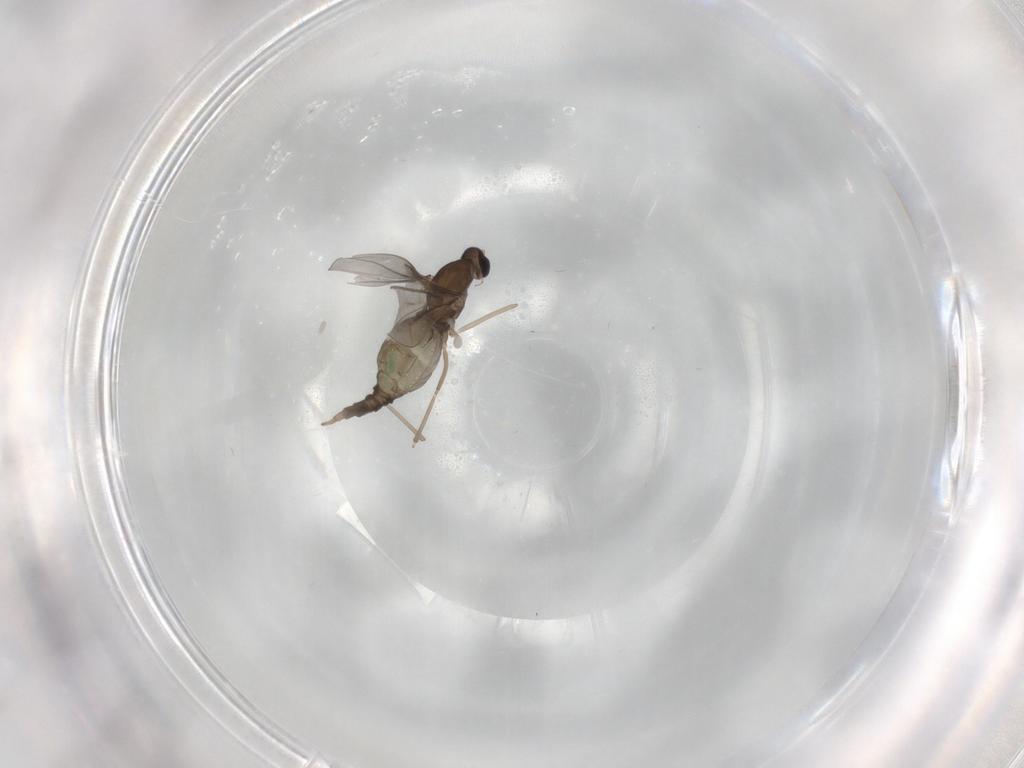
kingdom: Animalia
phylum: Arthropoda
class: Insecta
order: Diptera
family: Cecidomyiidae
